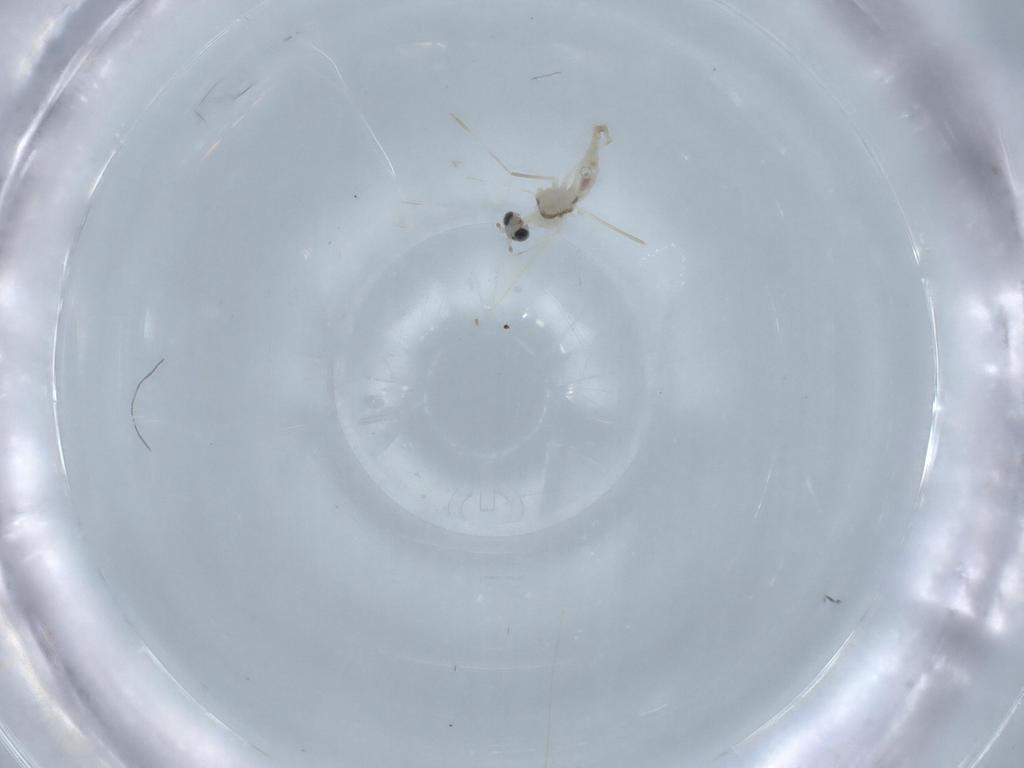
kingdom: Animalia
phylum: Arthropoda
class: Insecta
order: Diptera
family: Cecidomyiidae
